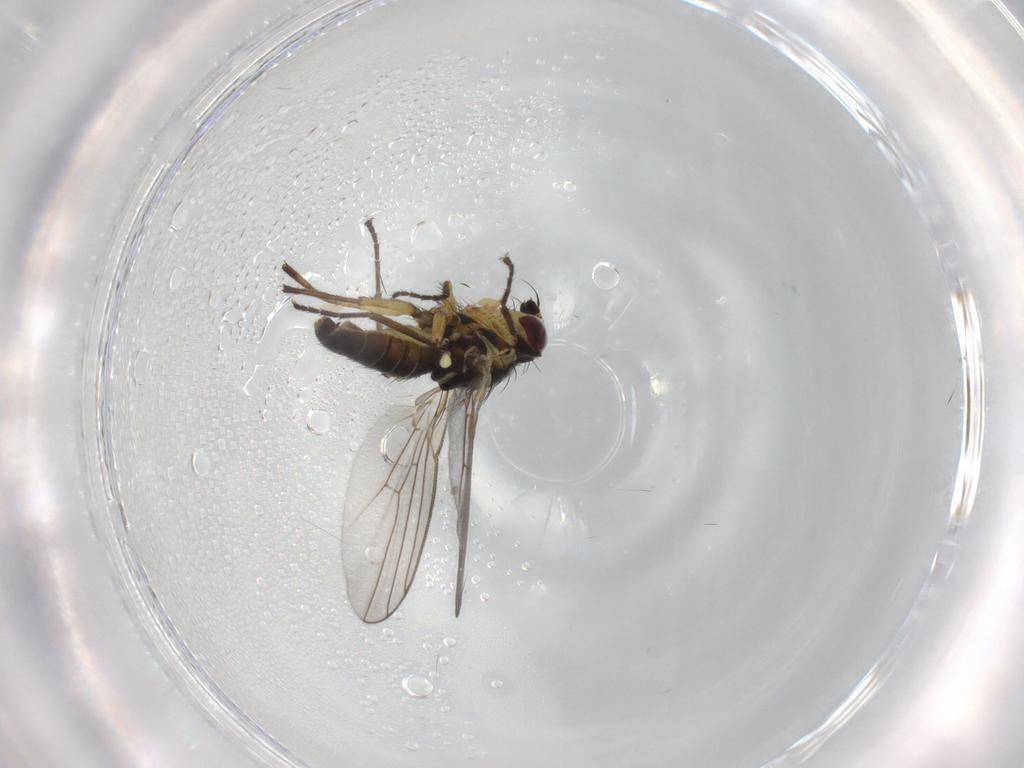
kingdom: Animalia
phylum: Arthropoda
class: Insecta
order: Diptera
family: Agromyzidae
